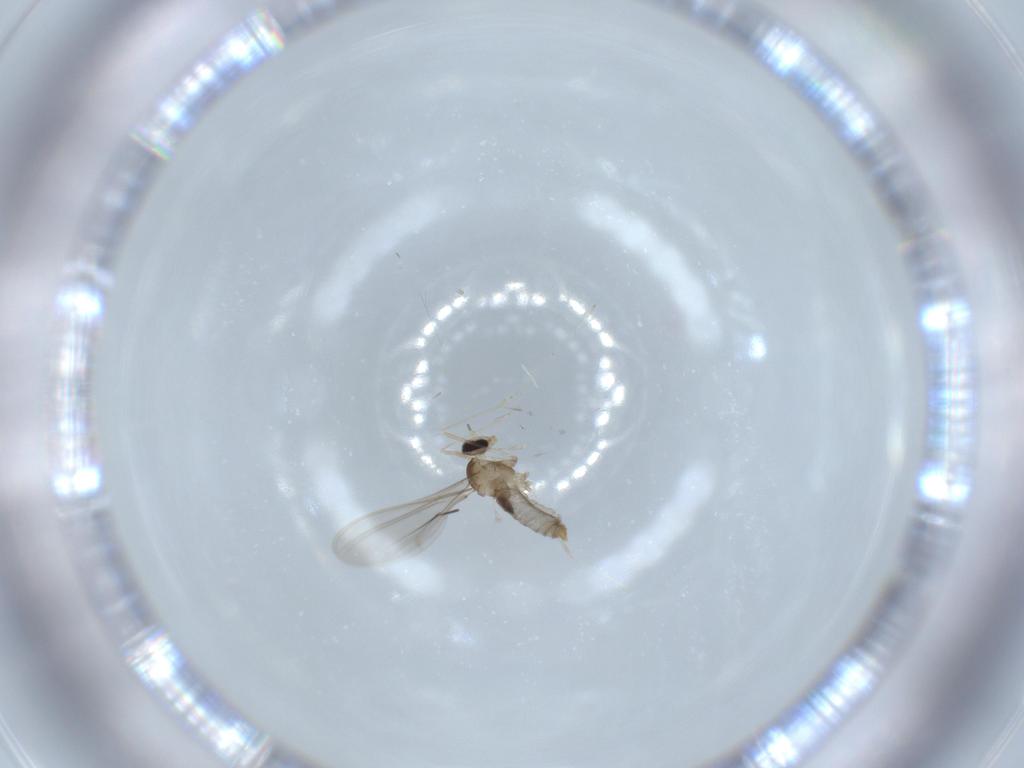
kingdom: Animalia
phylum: Arthropoda
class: Insecta
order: Diptera
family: Cecidomyiidae
